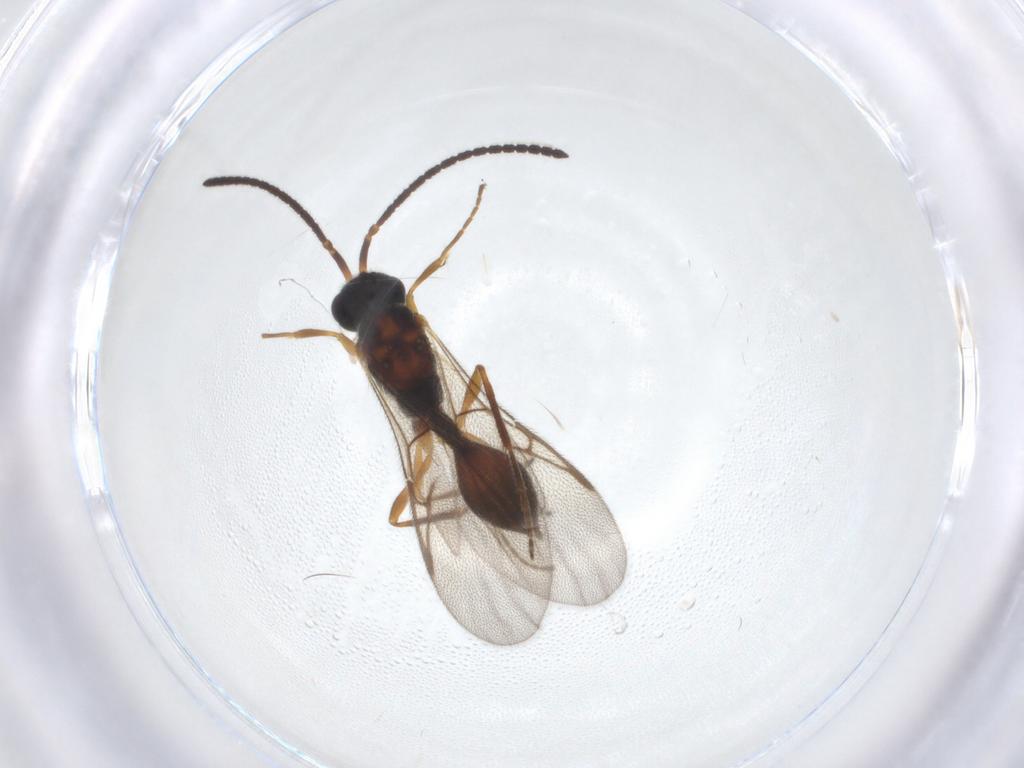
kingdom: Animalia
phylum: Arthropoda
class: Insecta
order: Hymenoptera
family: Diapriidae
